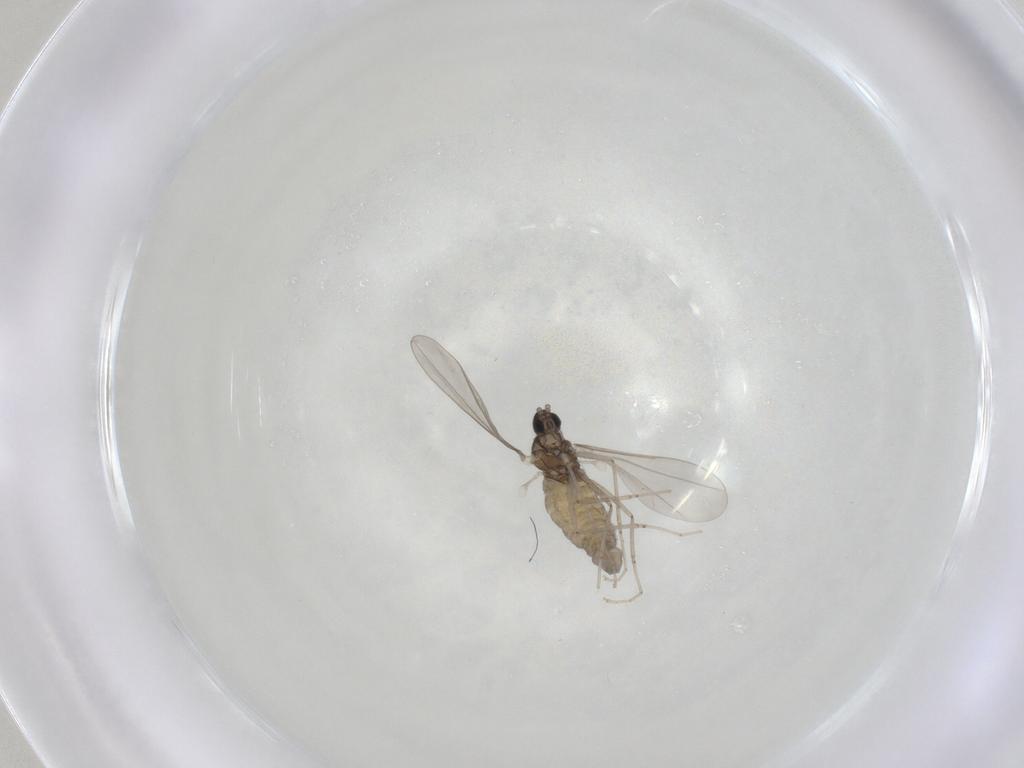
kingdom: Animalia
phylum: Arthropoda
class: Insecta
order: Diptera
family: Cecidomyiidae
